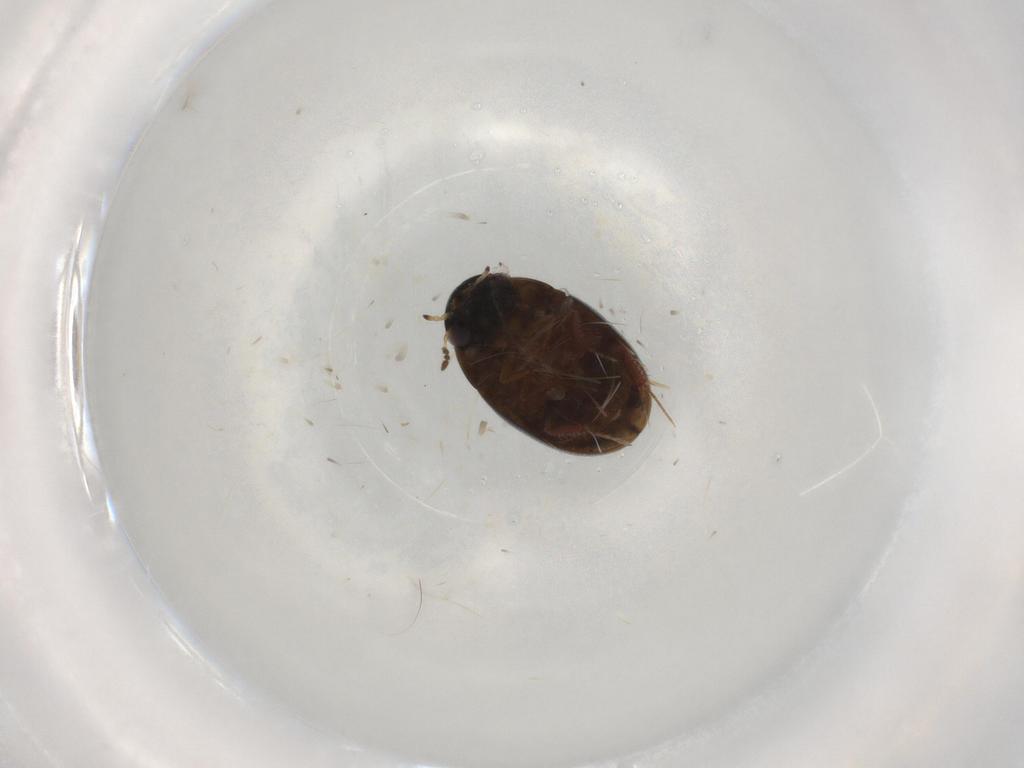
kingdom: Animalia
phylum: Arthropoda
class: Insecta
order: Coleoptera
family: Hydrophilidae
